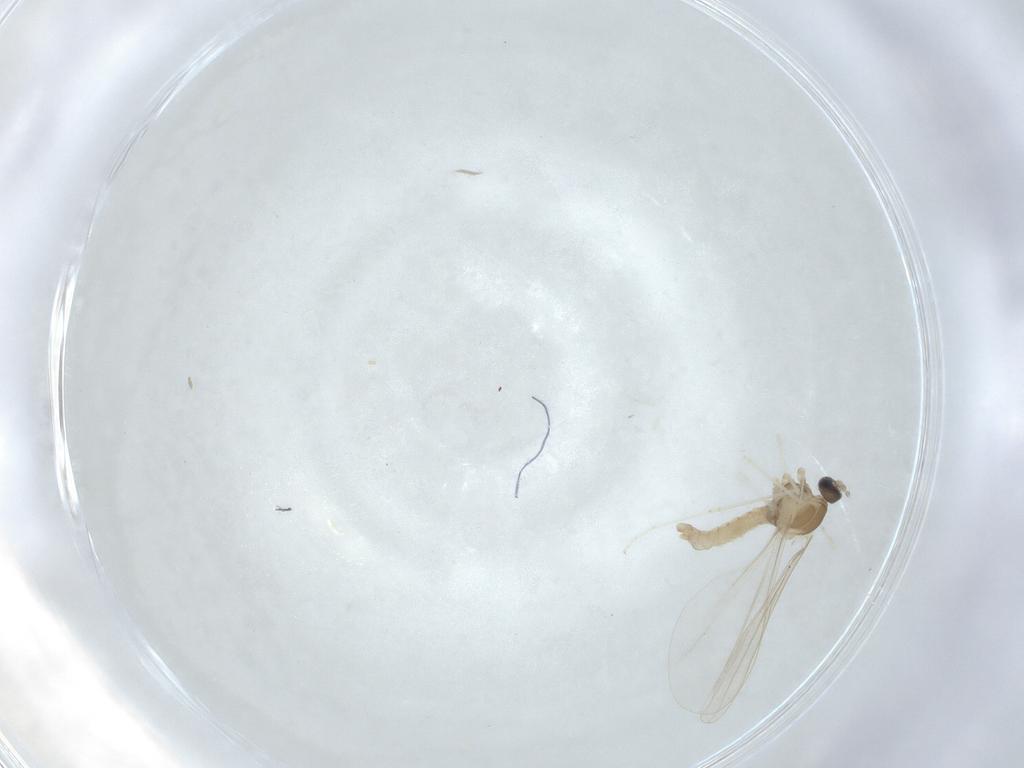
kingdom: Animalia
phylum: Arthropoda
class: Insecta
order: Diptera
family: Cecidomyiidae
